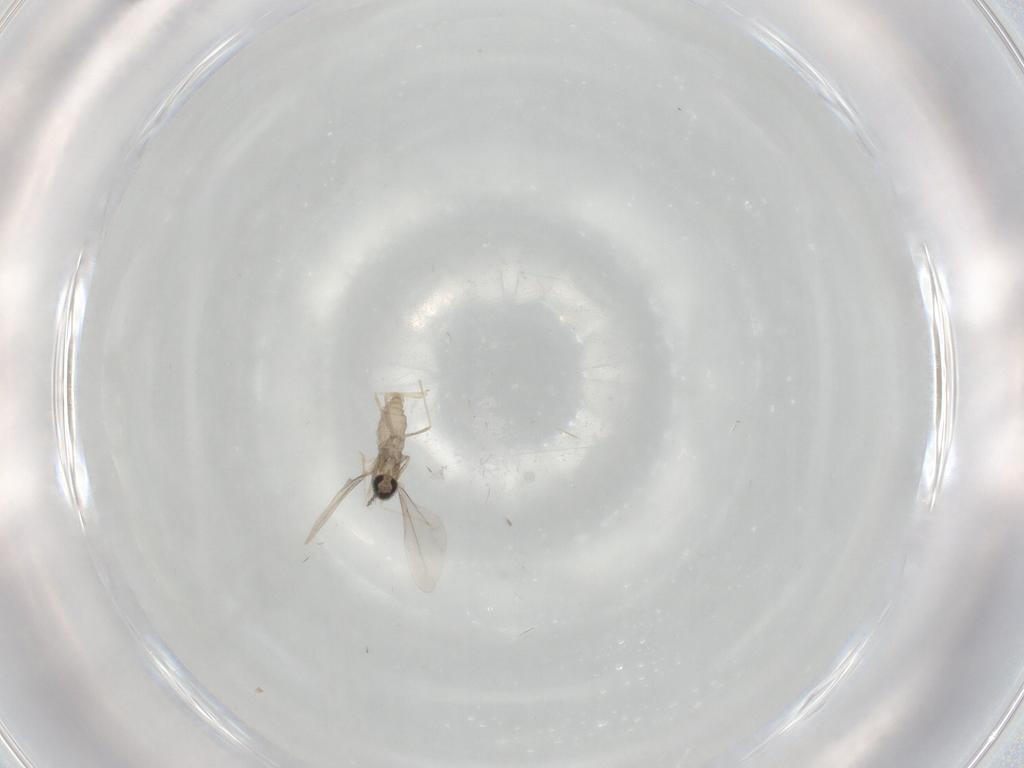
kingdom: Animalia
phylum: Arthropoda
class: Insecta
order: Diptera
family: Cecidomyiidae
